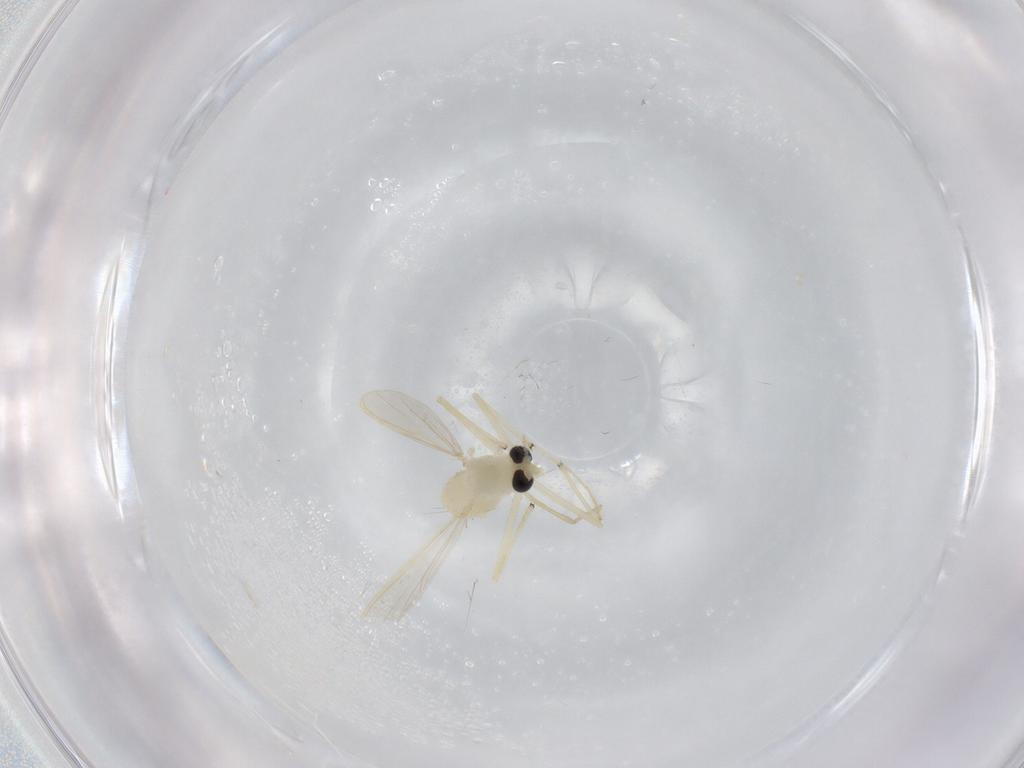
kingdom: Animalia
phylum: Arthropoda
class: Insecta
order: Diptera
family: Chironomidae
